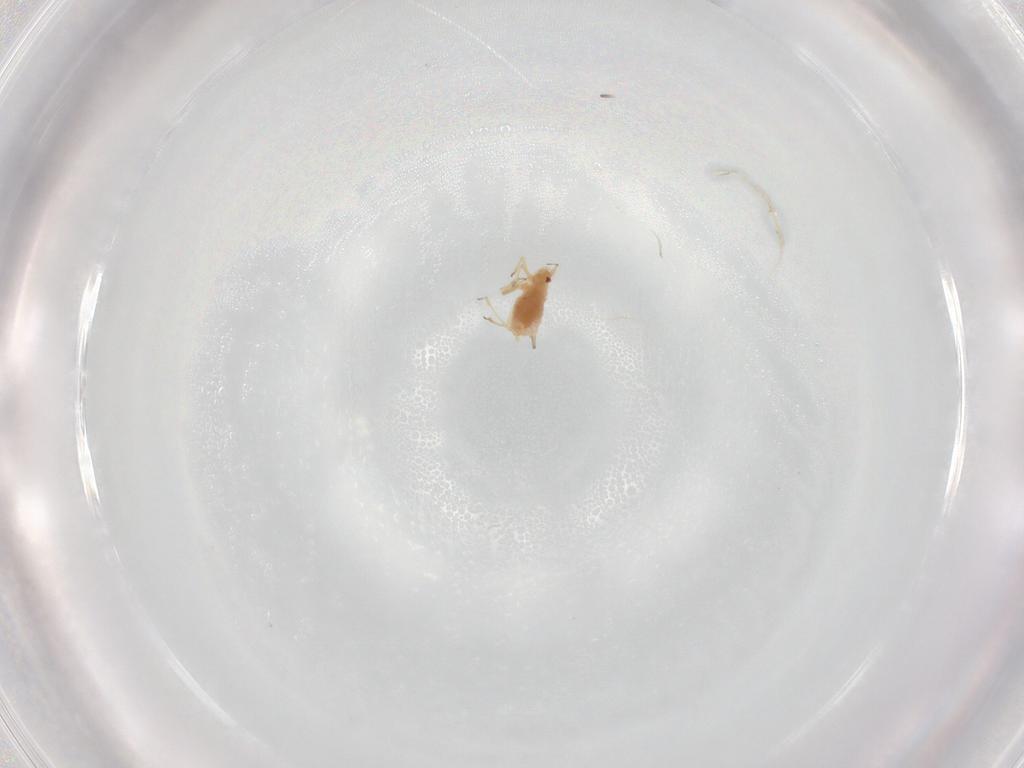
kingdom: Animalia
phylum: Arthropoda
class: Insecta
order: Hemiptera
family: Aphididae
